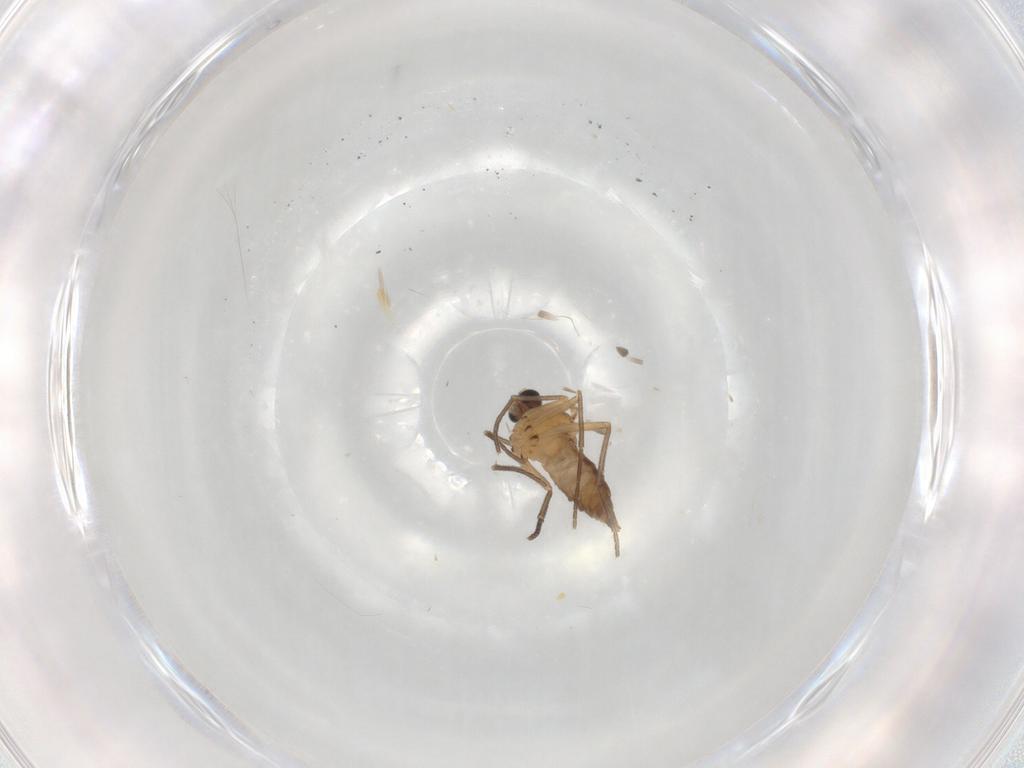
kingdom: Animalia
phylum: Arthropoda
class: Insecta
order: Diptera
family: Sciaridae
